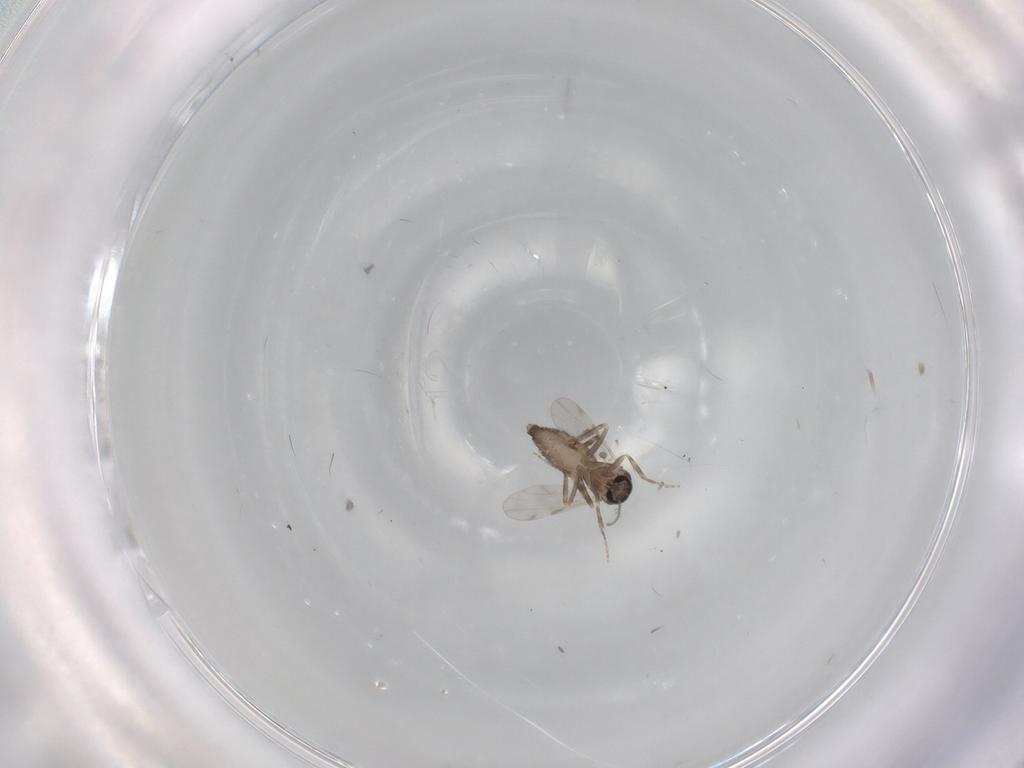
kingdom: Animalia
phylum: Arthropoda
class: Insecta
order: Diptera
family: Ceratopogonidae
